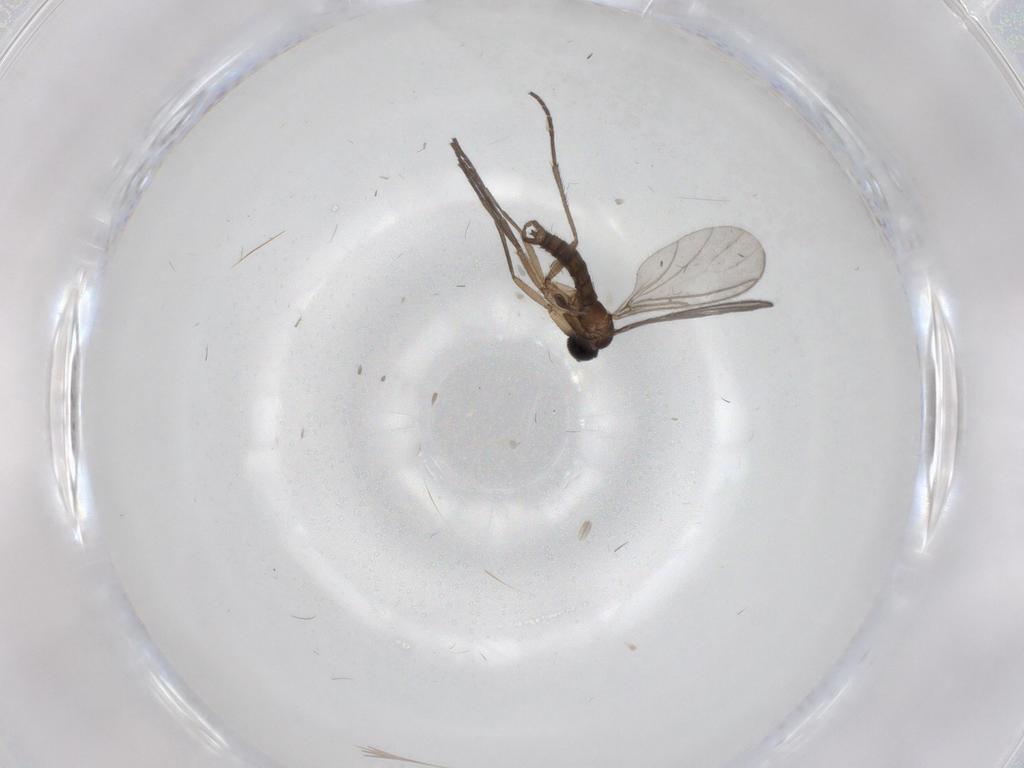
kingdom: Animalia
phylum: Arthropoda
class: Insecta
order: Diptera
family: Sciaridae
